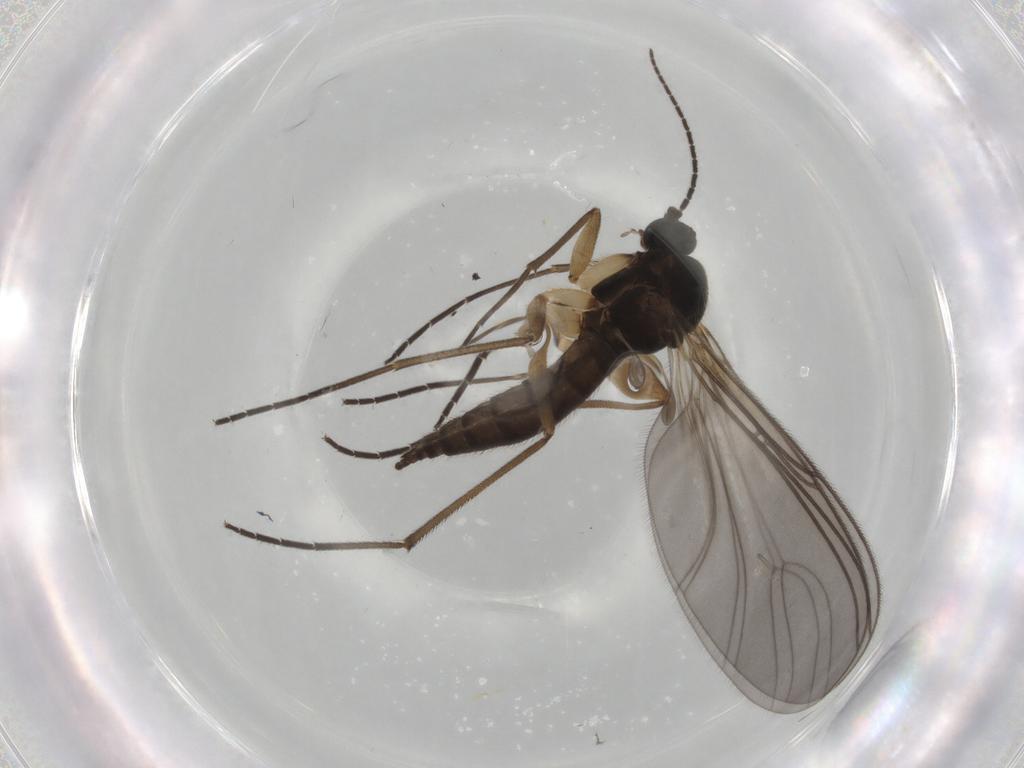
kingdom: Animalia
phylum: Arthropoda
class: Insecta
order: Diptera
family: Sciaridae
